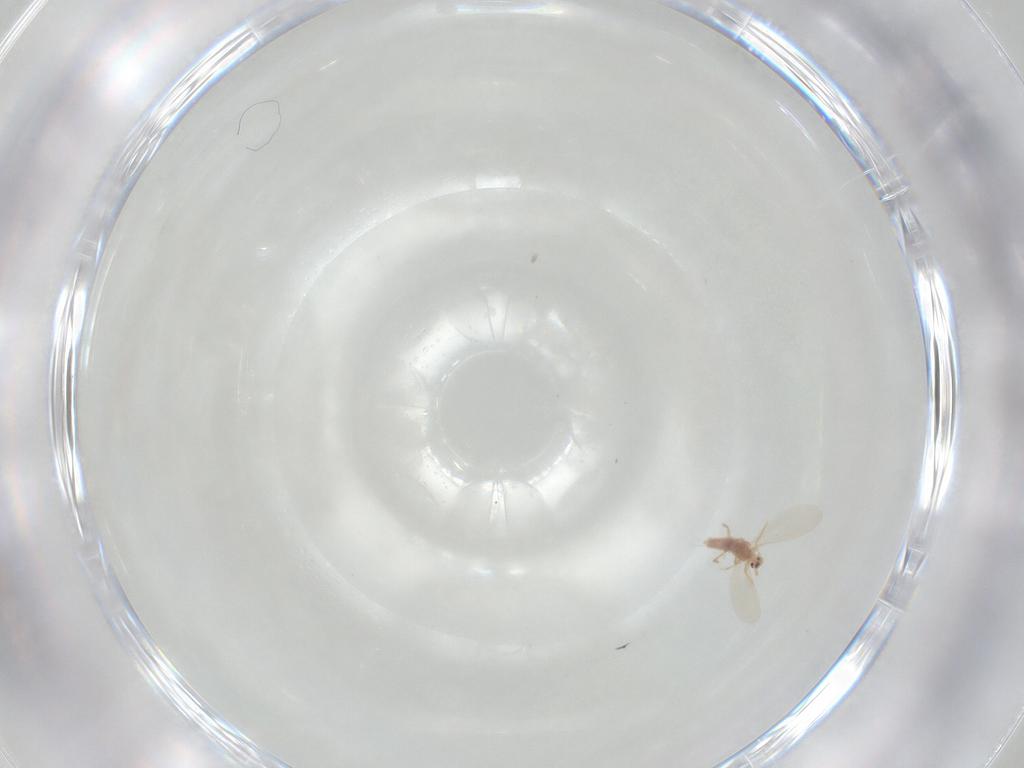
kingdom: Animalia
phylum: Arthropoda
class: Insecta
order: Hemiptera
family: Pseudococcidae
